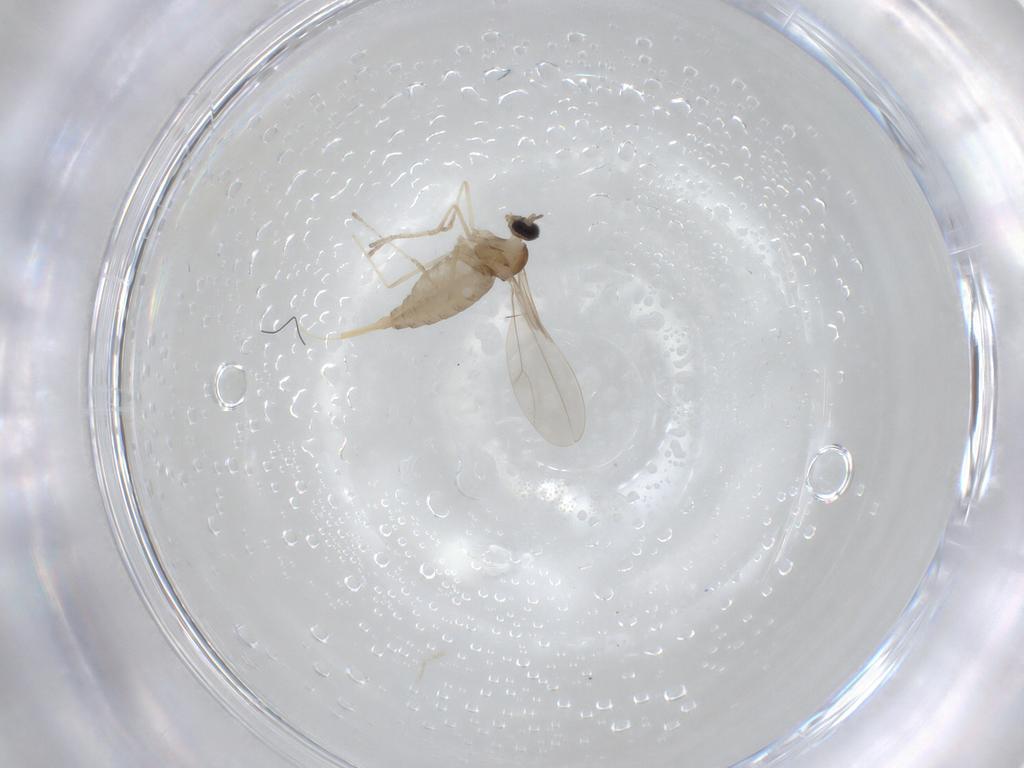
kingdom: Animalia
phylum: Arthropoda
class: Insecta
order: Diptera
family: Cecidomyiidae
